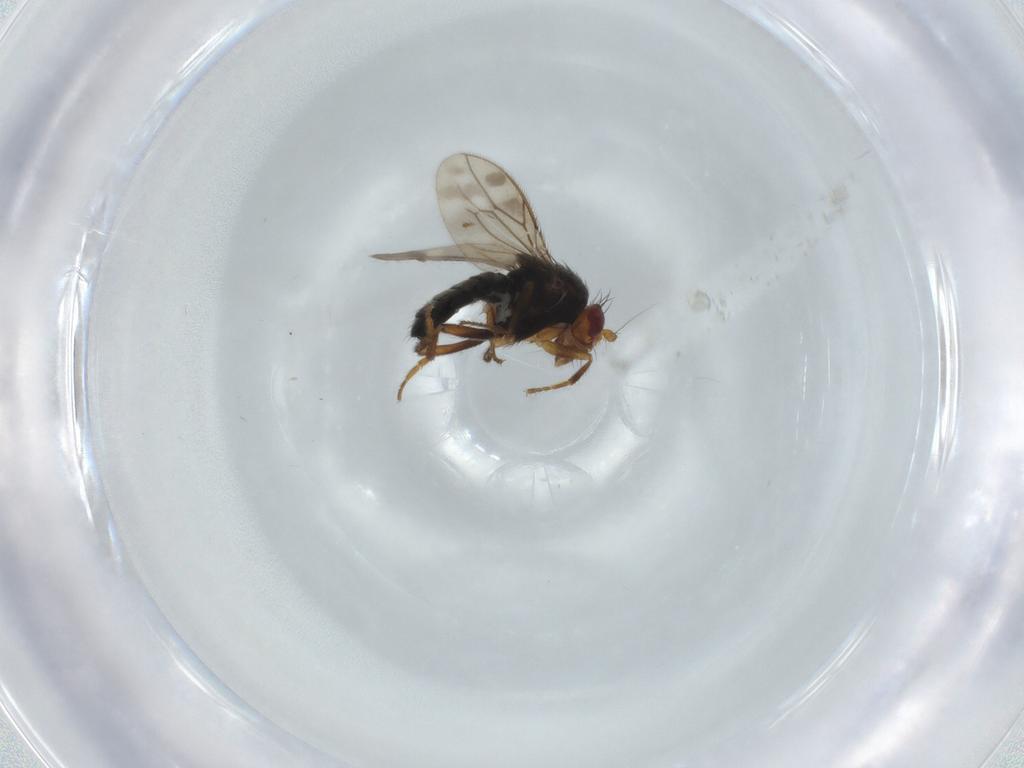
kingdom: Animalia
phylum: Arthropoda
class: Insecta
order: Diptera
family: Sphaeroceridae
